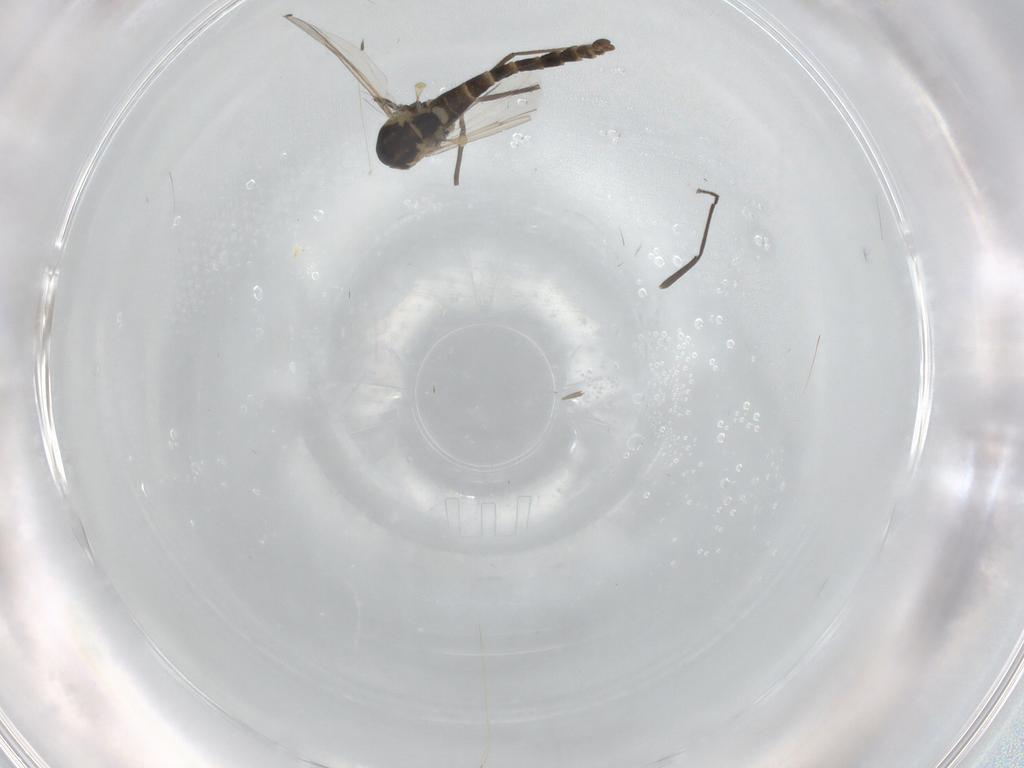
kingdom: Animalia
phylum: Arthropoda
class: Insecta
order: Diptera
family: Chironomidae
